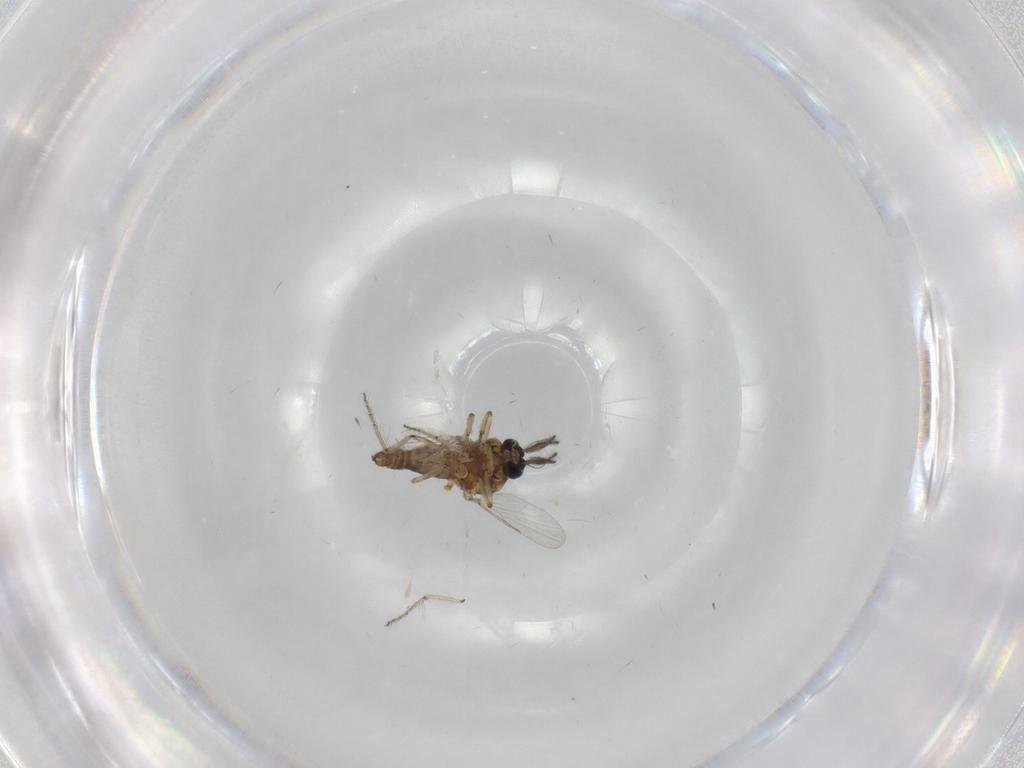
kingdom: Animalia
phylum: Arthropoda
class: Insecta
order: Diptera
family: Ceratopogonidae
